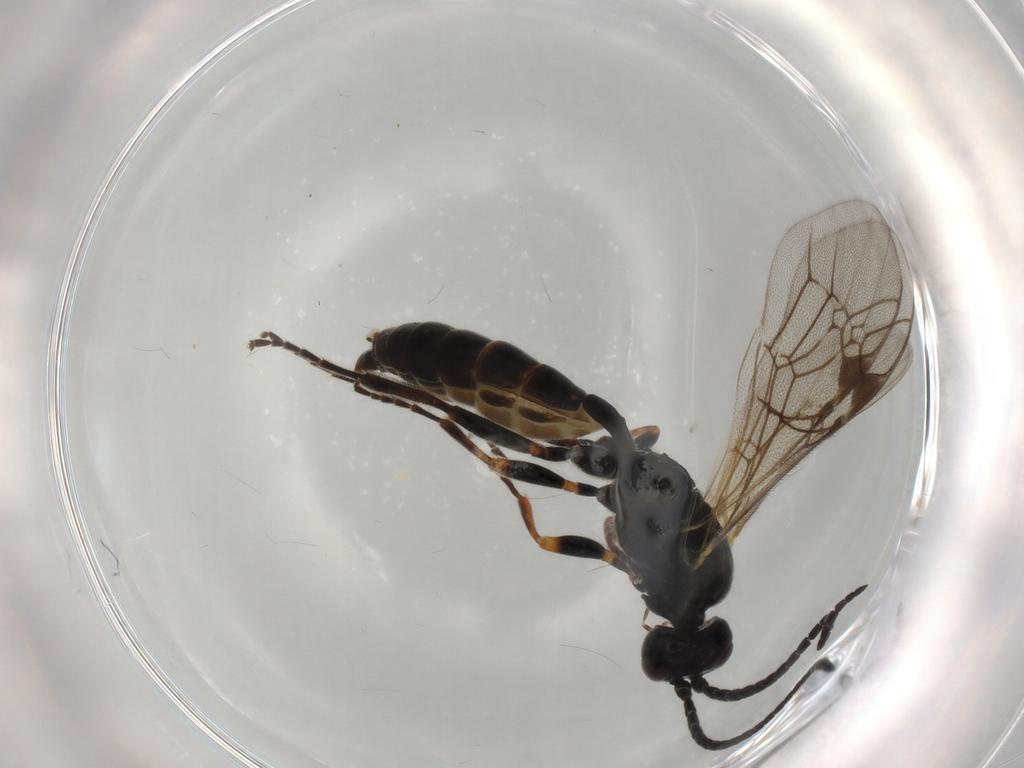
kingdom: Animalia
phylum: Arthropoda
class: Insecta
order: Hymenoptera
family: Ichneumonidae
